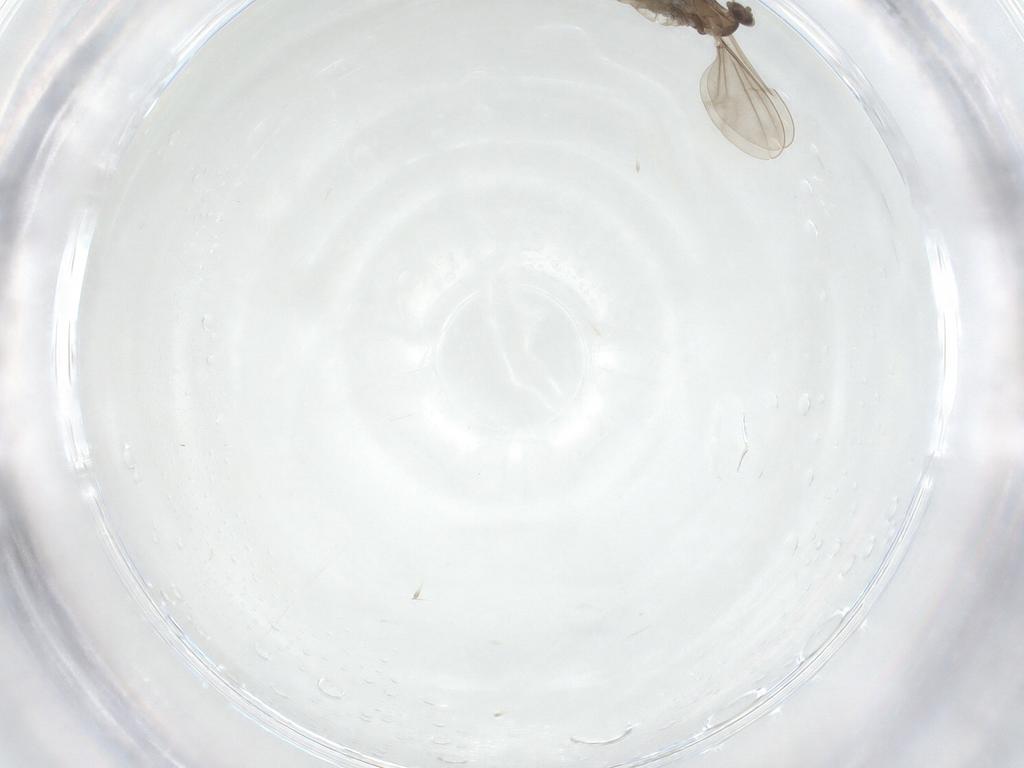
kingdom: Animalia
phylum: Arthropoda
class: Insecta
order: Diptera
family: Cecidomyiidae
